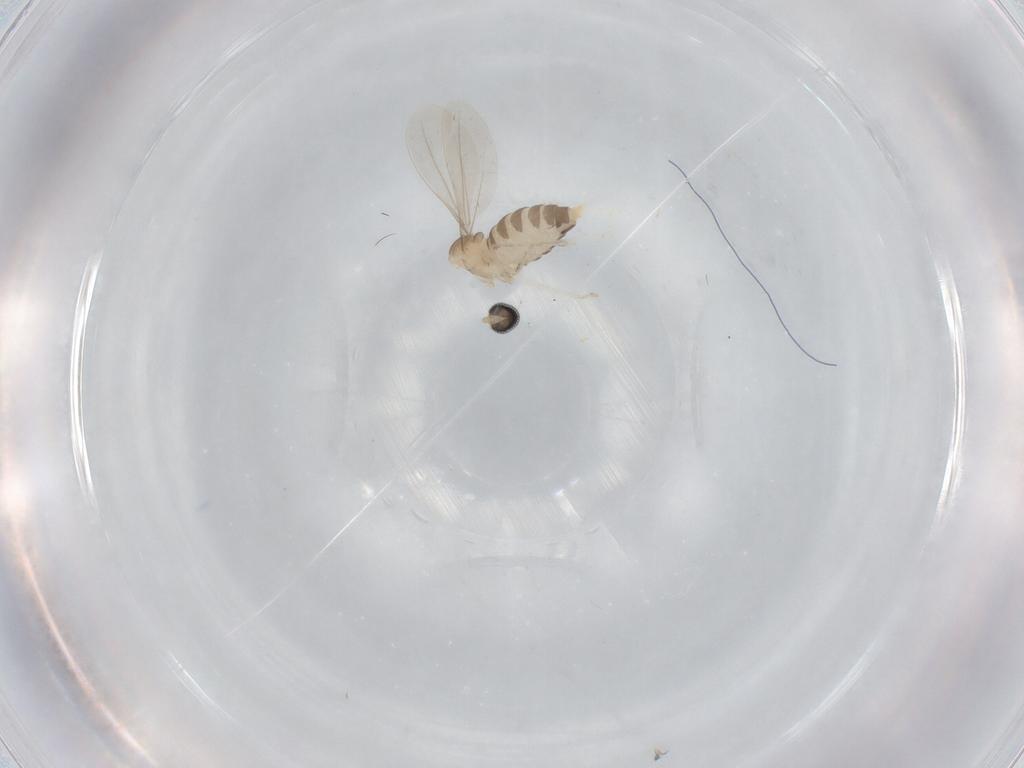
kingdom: Animalia
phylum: Arthropoda
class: Insecta
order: Diptera
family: Cecidomyiidae
